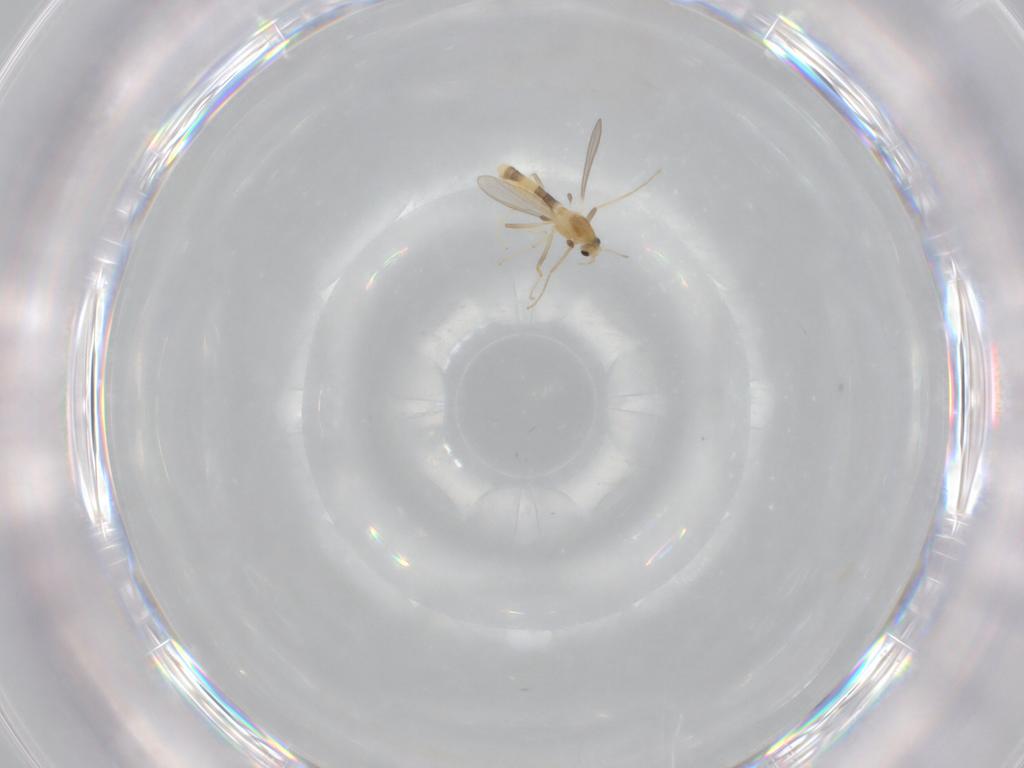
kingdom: Animalia
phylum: Arthropoda
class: Insecta
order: Diptera
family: Chironomidae
